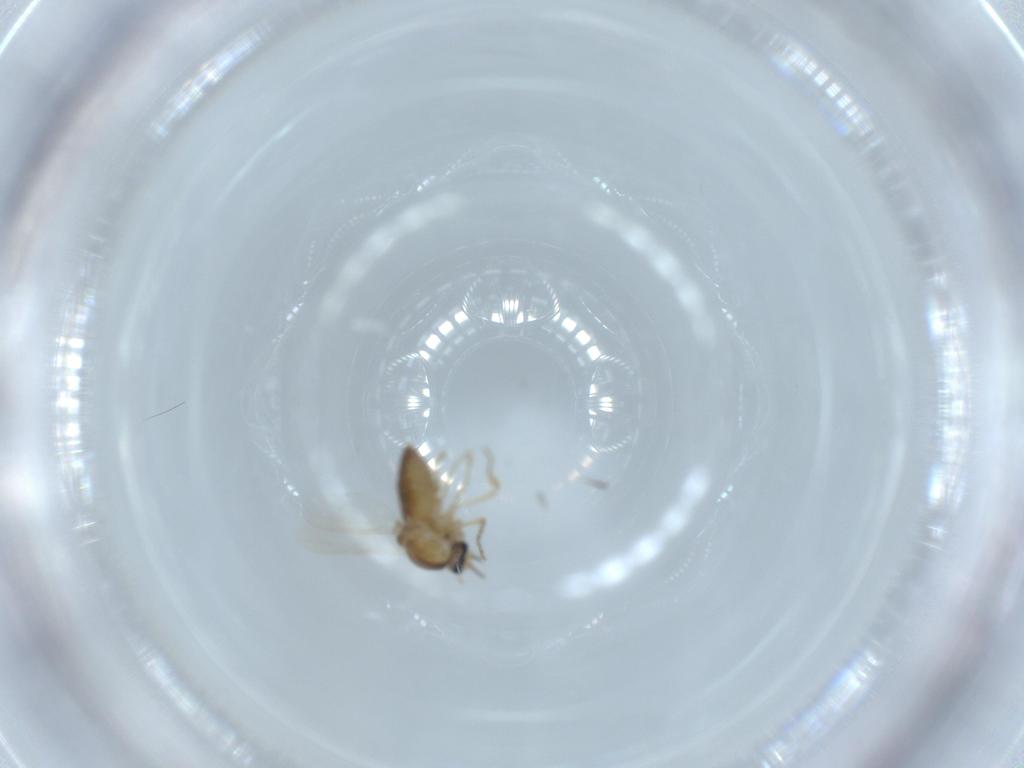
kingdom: Animalia
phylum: Arthropoda
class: Insecta
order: Diptera
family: Ceratopogonidae
